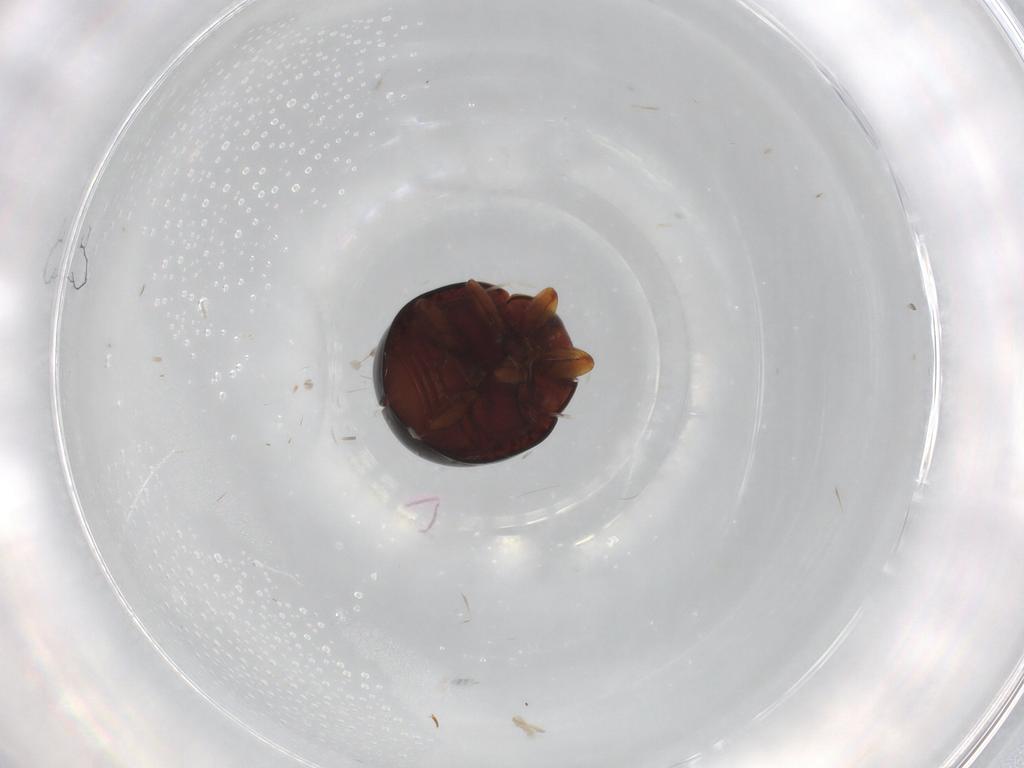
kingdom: Animalia
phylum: Arthropoda
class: Insecta
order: Coleoptera
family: Coccinellidae
